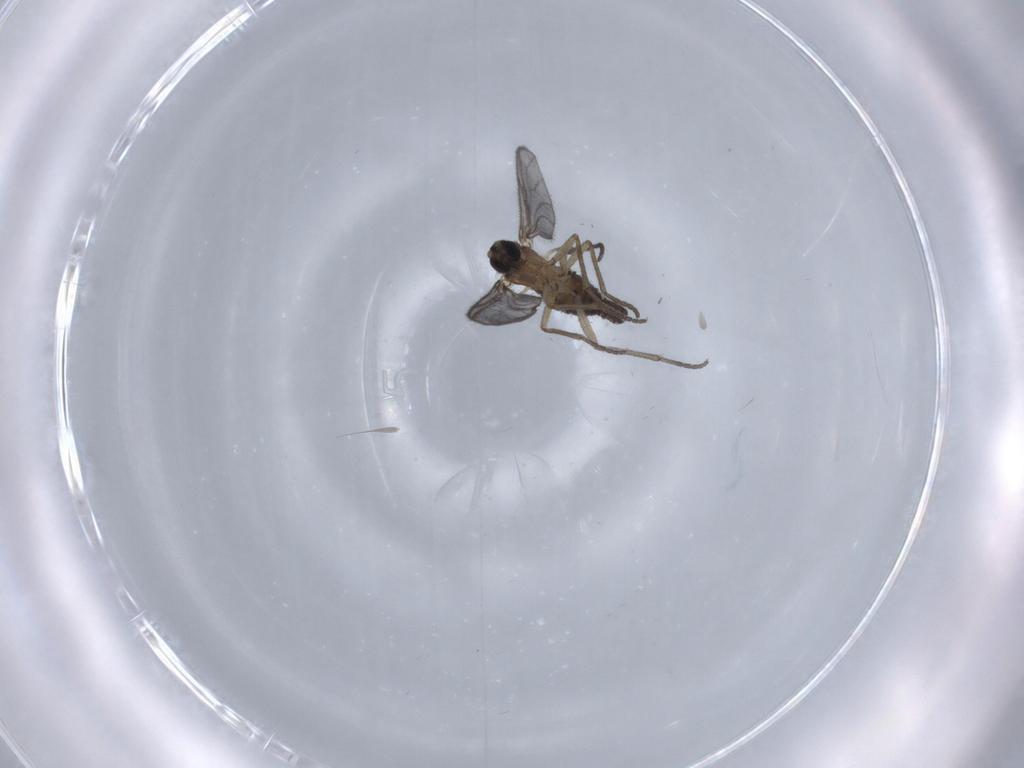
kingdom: Animalia
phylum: Arthropoda
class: Insecta
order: Diptera
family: Sciaridae
